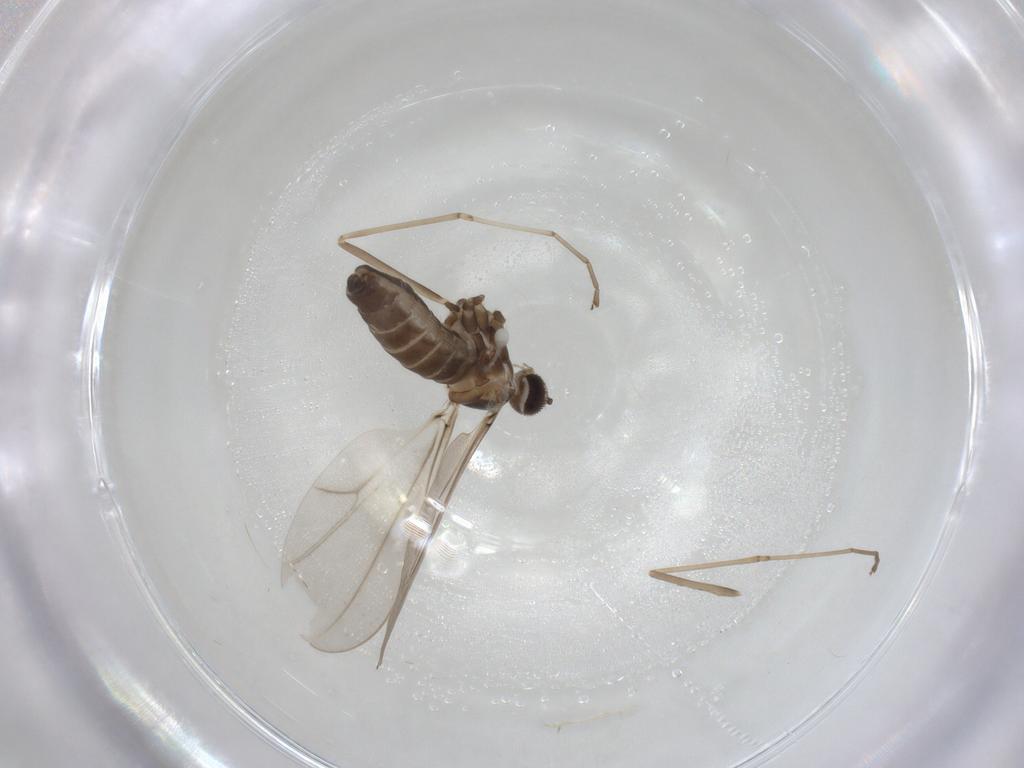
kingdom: Animalia
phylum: Arthropoda
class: Insecta
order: Diptera
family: Cecidomyiidae
